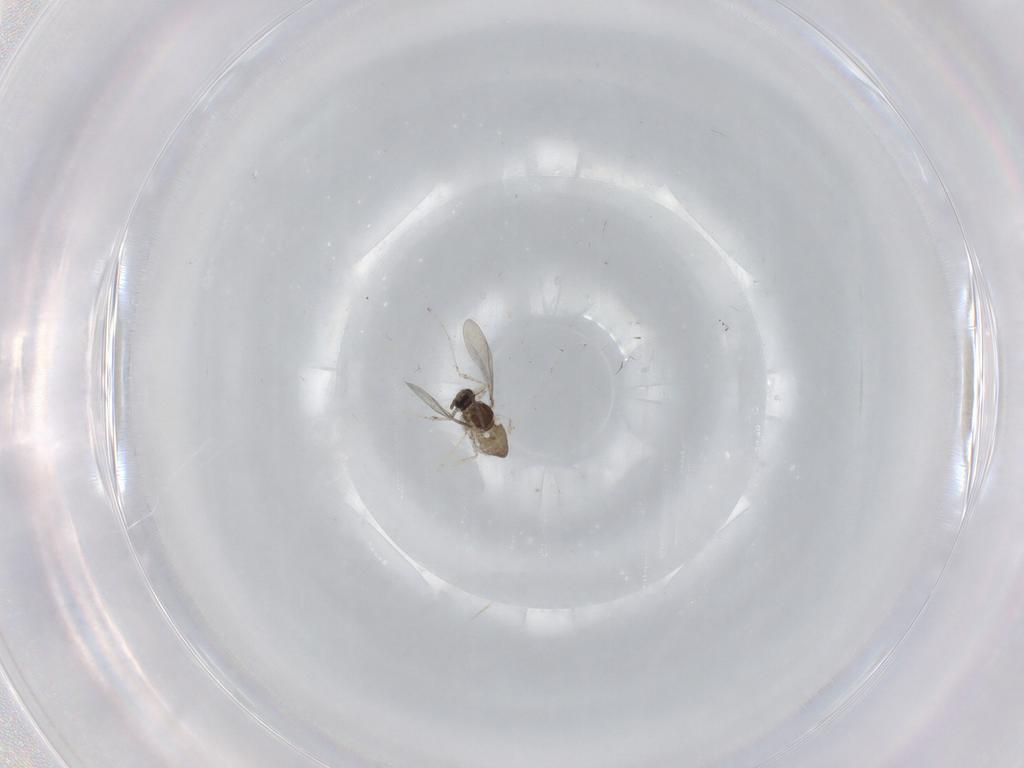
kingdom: Animalia
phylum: Arthropoda
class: Insecta
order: Diptera
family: Cecidomyiidae
